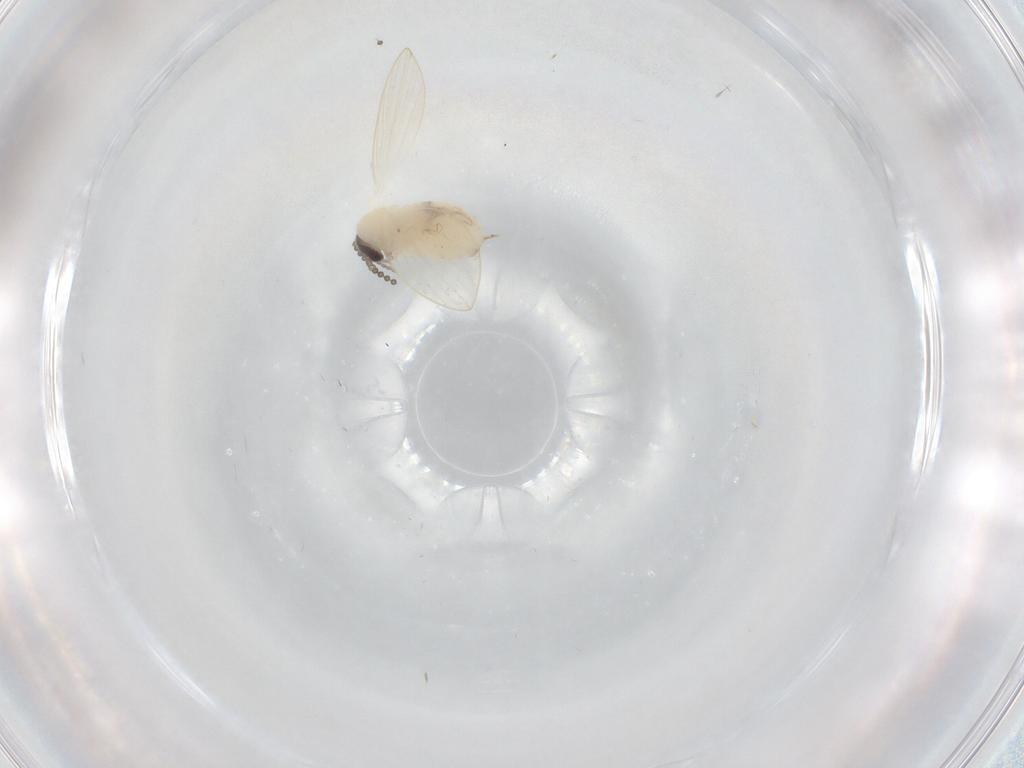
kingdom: Animalia
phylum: Arthropoda
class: Insecta
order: Diptera
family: Psychodidae
